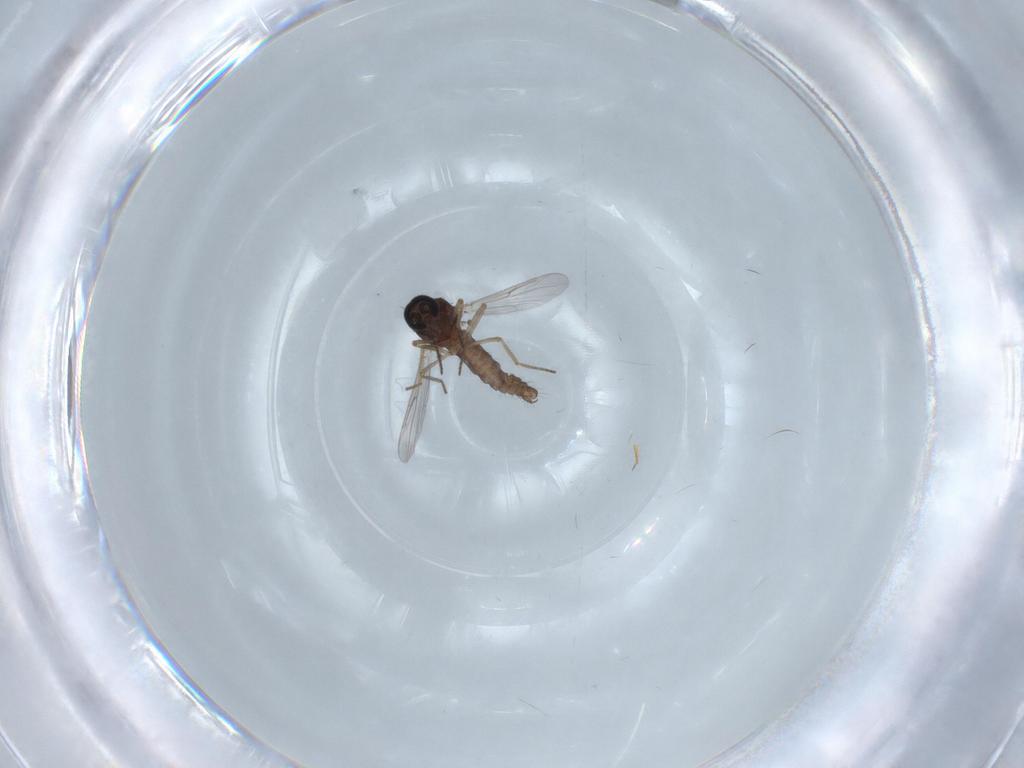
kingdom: Animalia
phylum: Arthropoda
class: Insecta
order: Diptera
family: Ceratopogonidae
